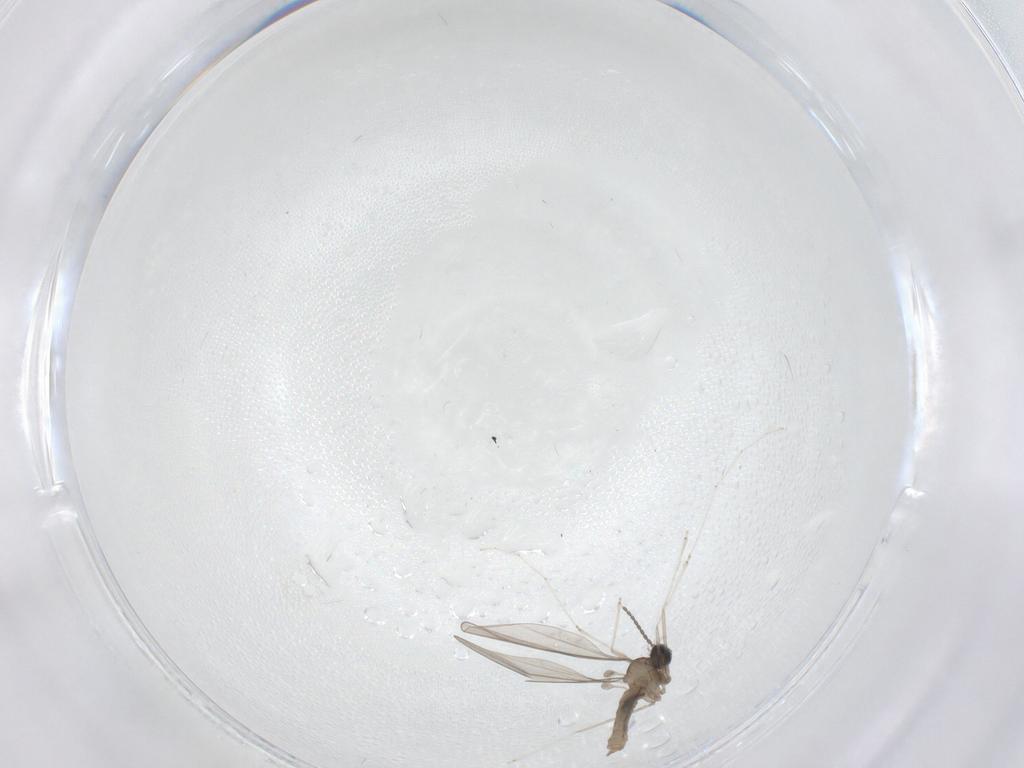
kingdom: Animalia
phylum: Arthropoda
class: Insecta
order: Diptera
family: Cecidomyiidae
